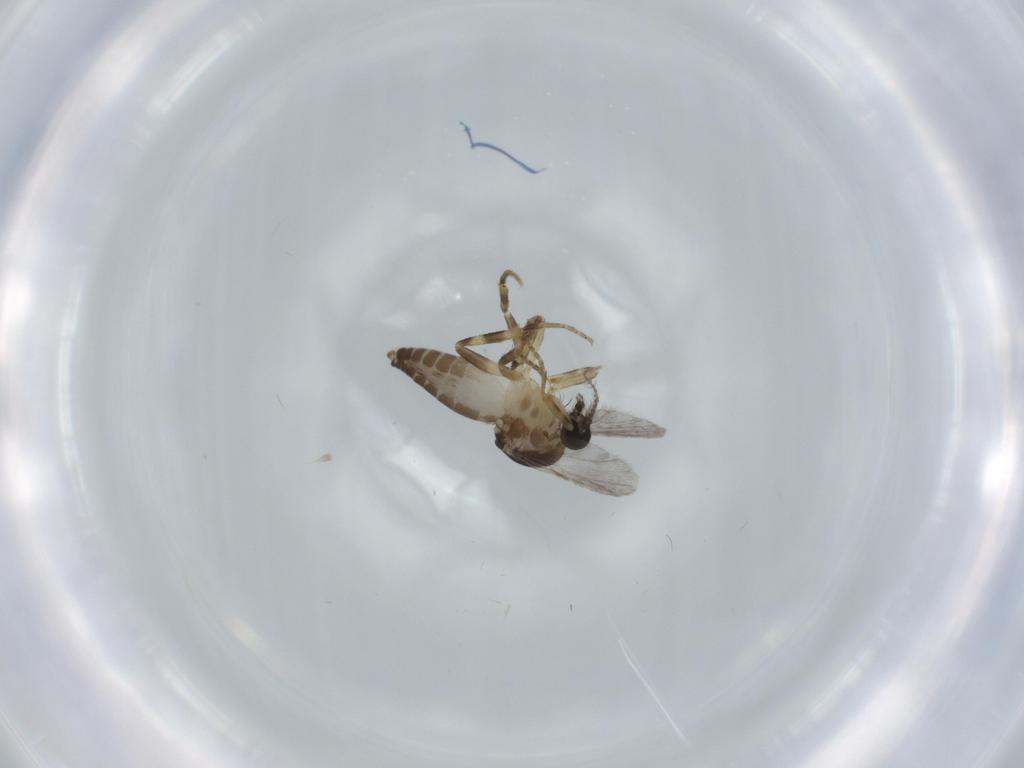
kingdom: Animalia
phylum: Arthropoda
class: Insecta
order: Diptera
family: Ceratopogonidae
